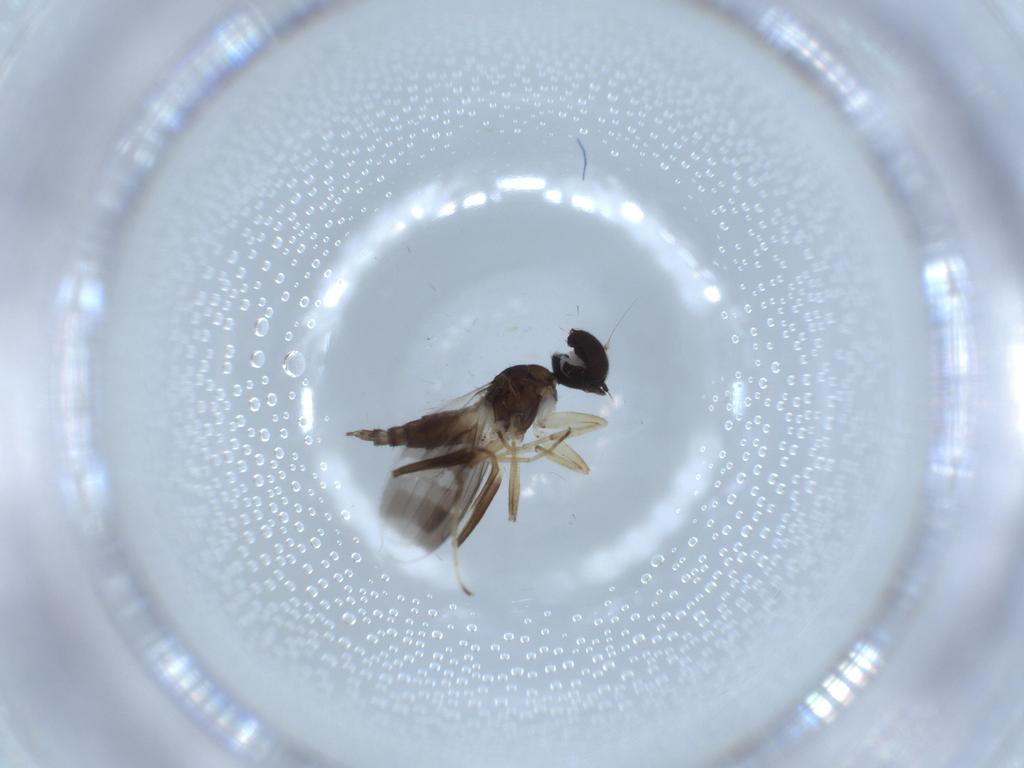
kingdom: Animalia
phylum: Arthropoda
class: Insecta
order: Diptera
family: Hybotidae
